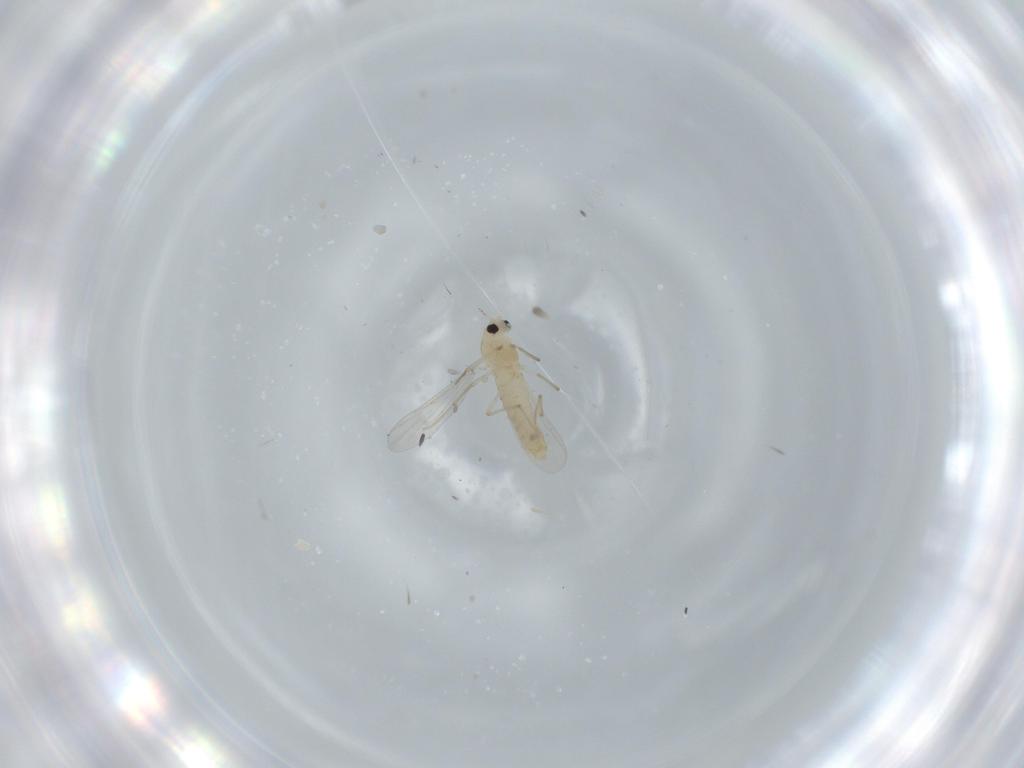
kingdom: Animalia
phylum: Arthropoda
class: Insecta
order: Diptera
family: Chironomidae
